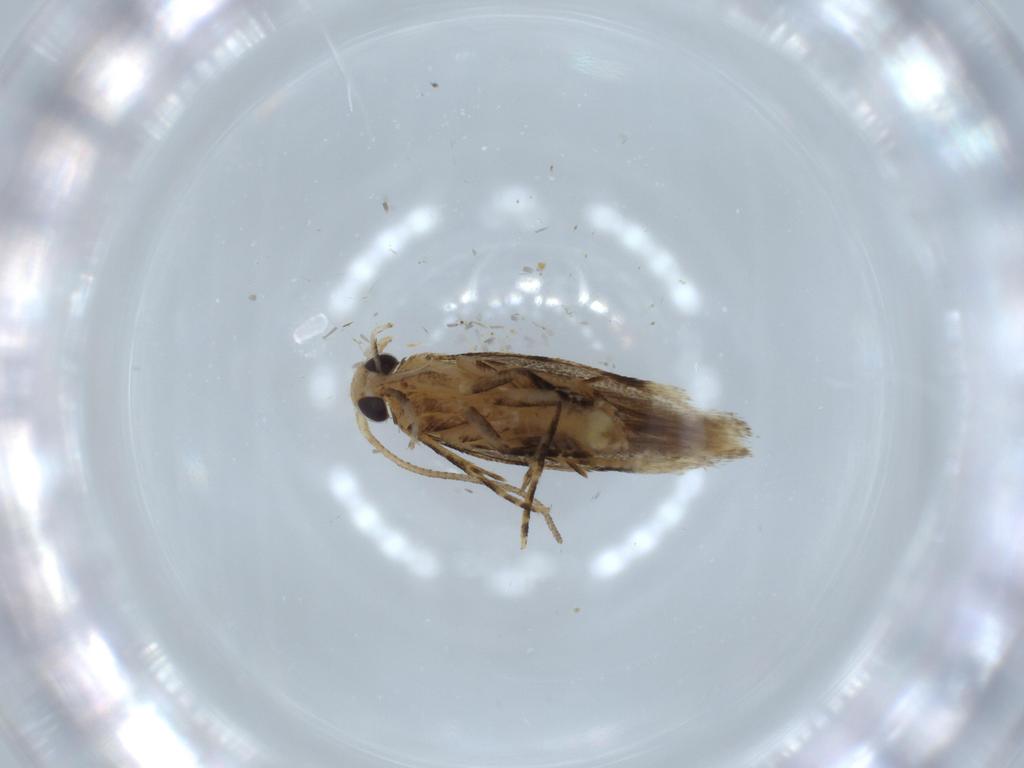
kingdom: Animalia
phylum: Arthropoda
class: Insecta
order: Lepidoptera
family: Gelechiidae
